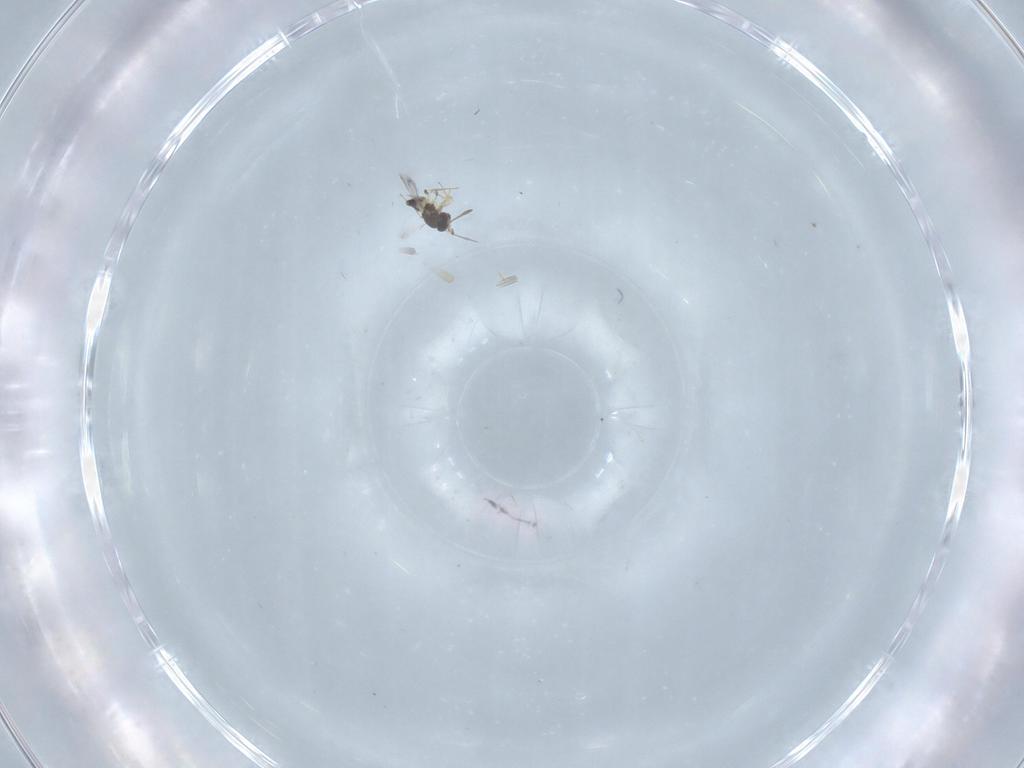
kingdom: Animalia
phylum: Arthropoda
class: Insecta
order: Hymenoptera
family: Mymaridae
